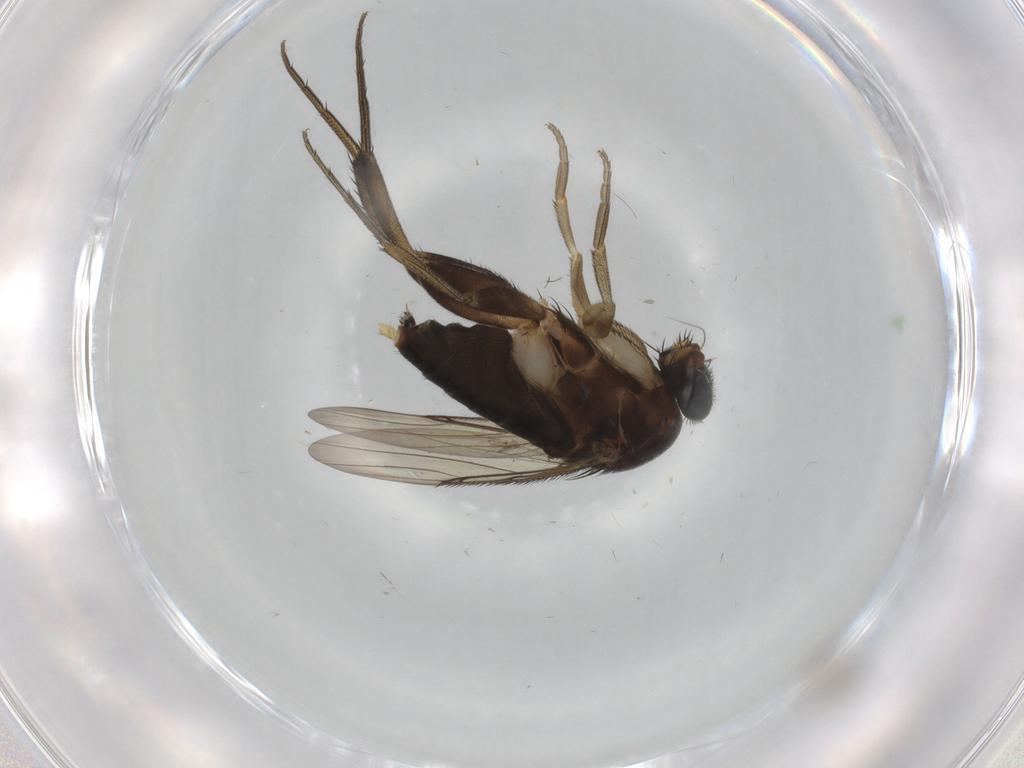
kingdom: Animalia
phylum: Arthropoda
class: Insecta
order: Diptera
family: Phoridae
